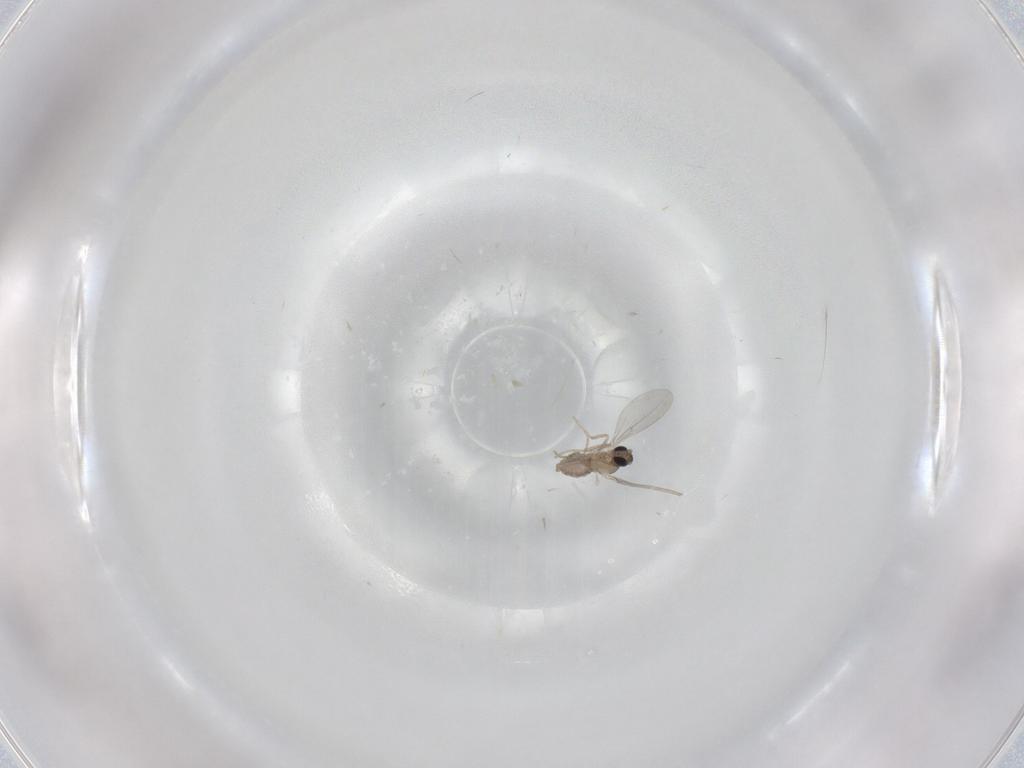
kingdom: Animalia
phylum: Arthropoda
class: Insecta
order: Diptera
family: Cecidomyiidae
